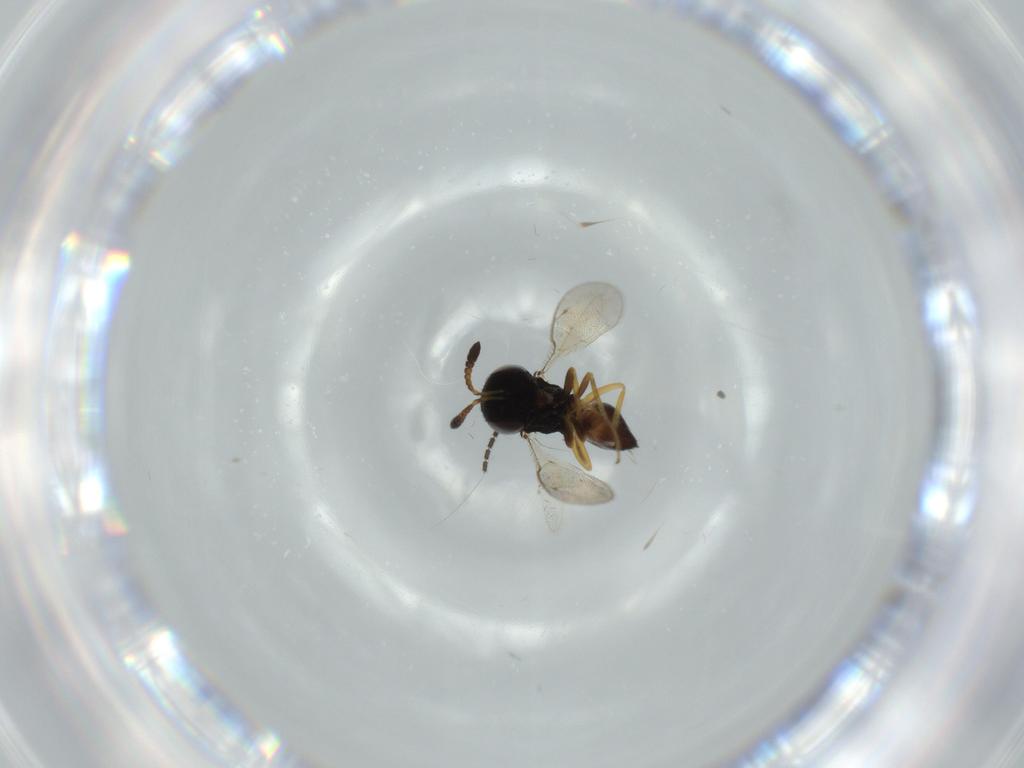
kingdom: Animalia
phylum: Arthropoda
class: Insecta
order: Hymenoptera
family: Pteromalidae
